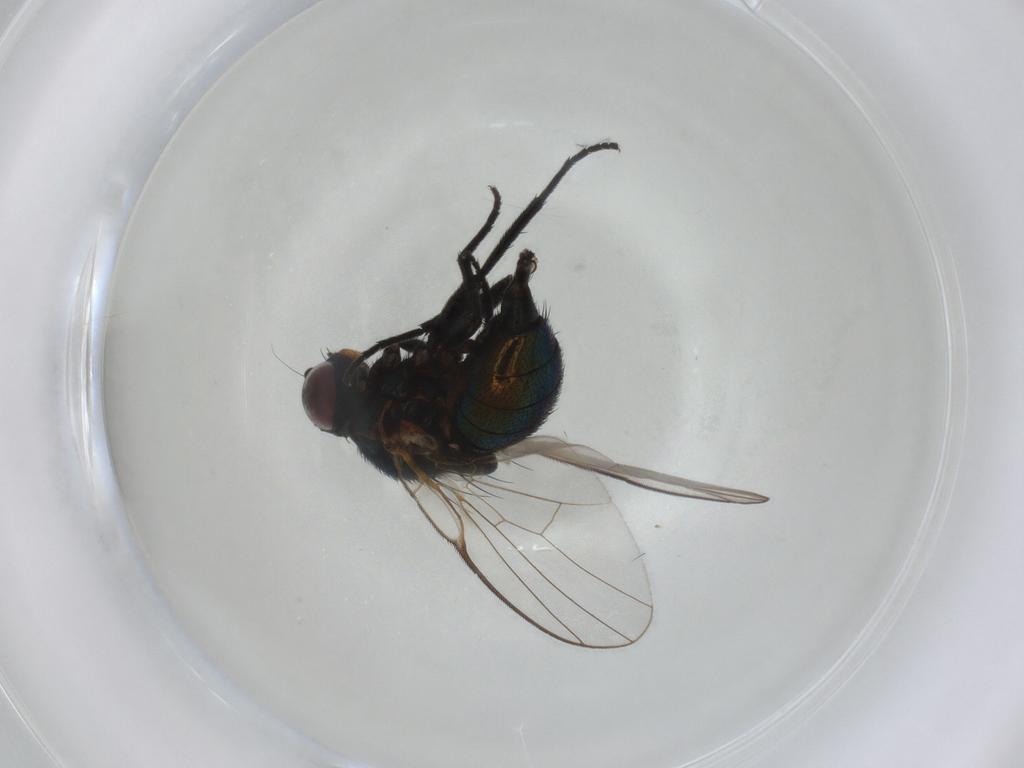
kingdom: Animalia
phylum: Arthropoda
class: Insecta
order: Diptera
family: Agromyzidae
